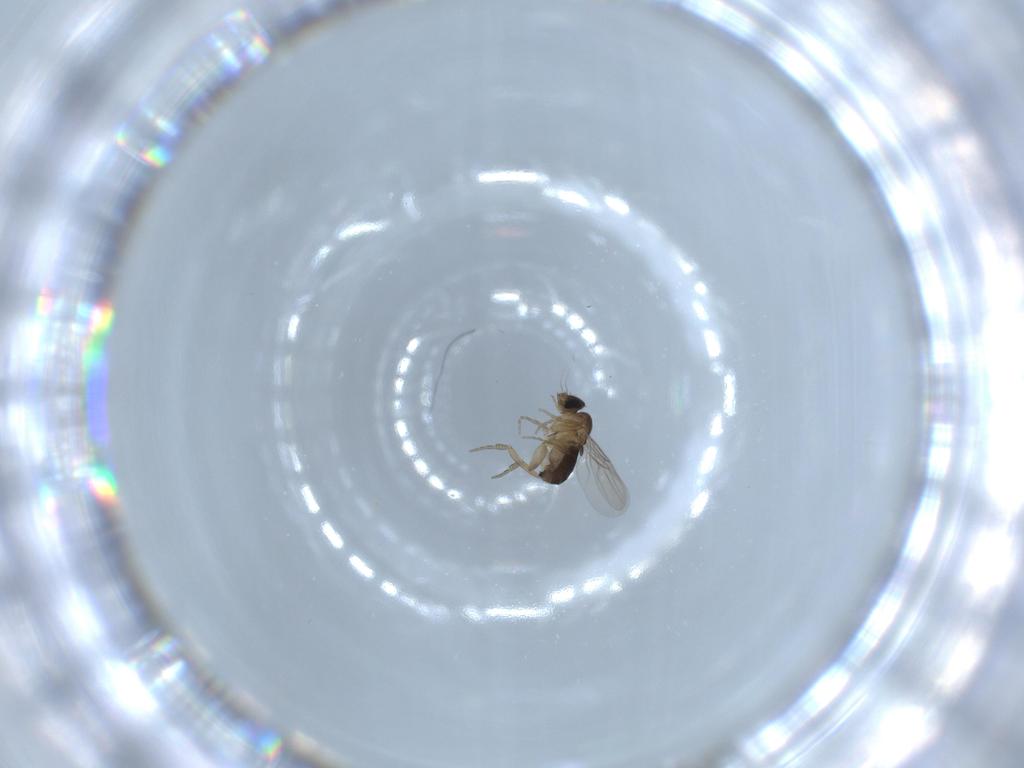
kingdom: Animalia
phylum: Arthropoda
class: Insecta
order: Diptera
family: Phoridae
